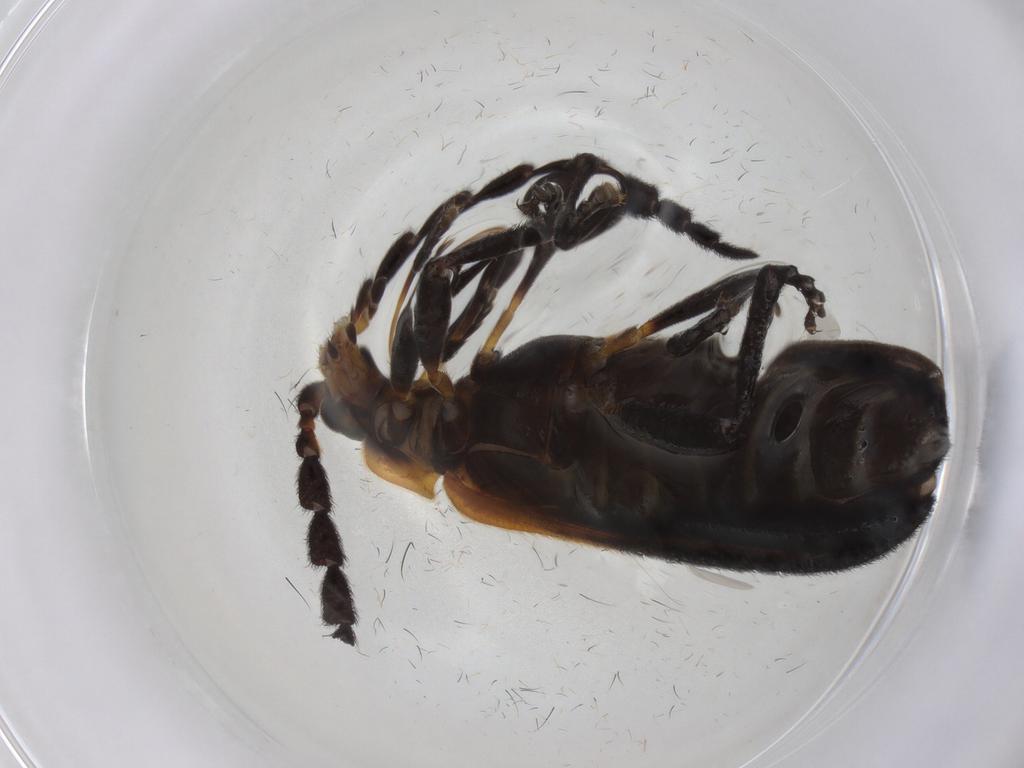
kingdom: Animalia
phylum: Arthropoda
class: Insecta
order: Coleoptera
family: Lycidae
